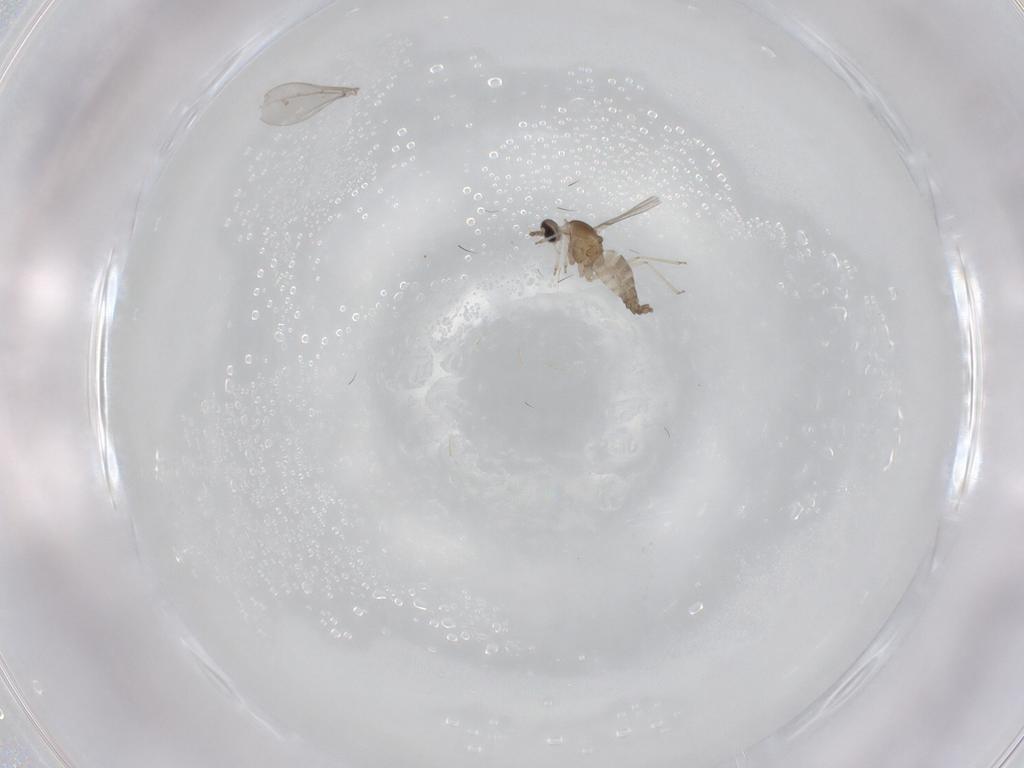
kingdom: Animalia
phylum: Arthropoda
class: Insecta
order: Diptera
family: Cecidomyiidae
